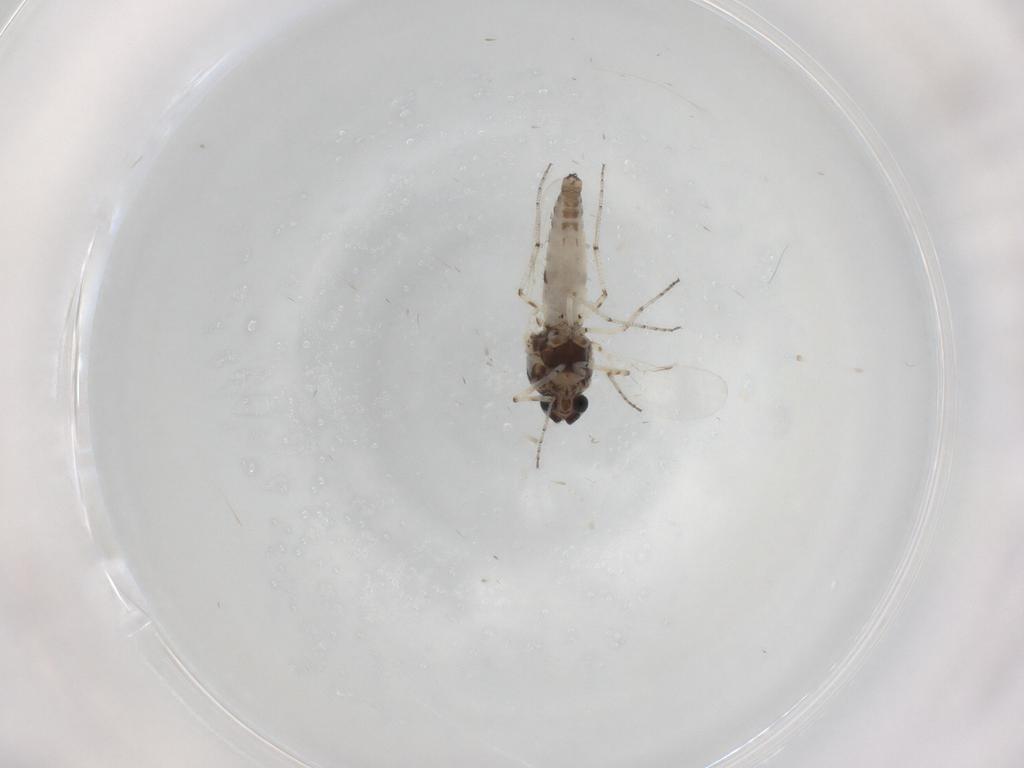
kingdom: Animalia
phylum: Arthropoda
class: Insecta
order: Diptera
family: Ceratopogonidae
